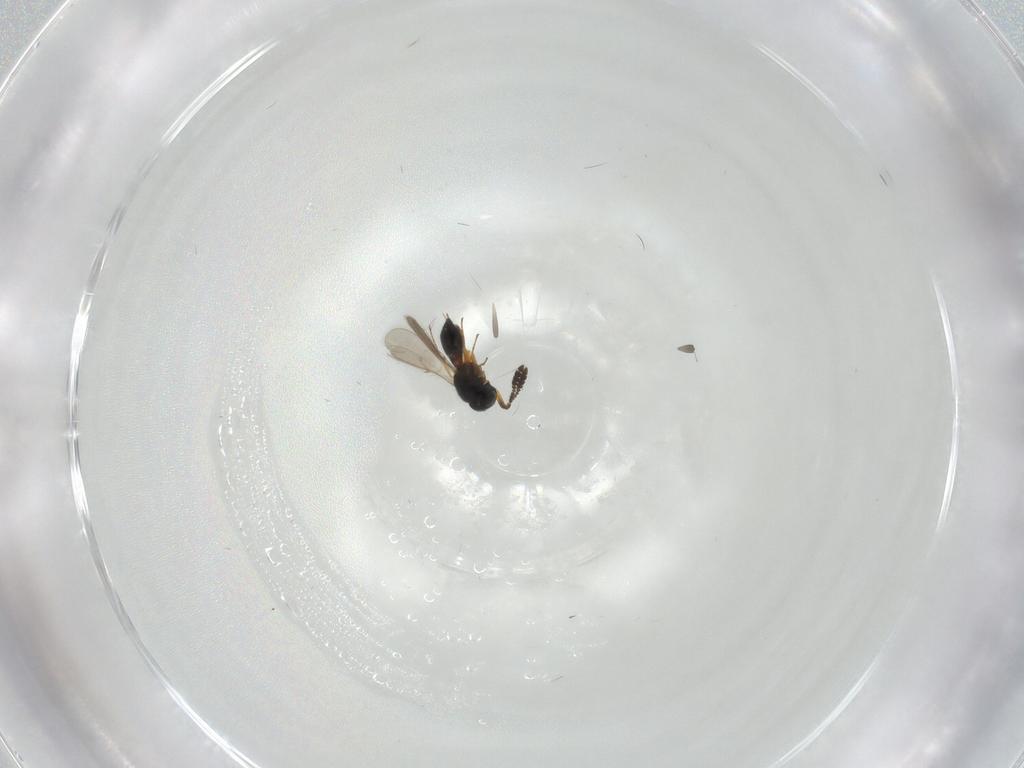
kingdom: Animalia
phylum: Arthropoda
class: Insecta
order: Hymenoptera
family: Scelionidae
